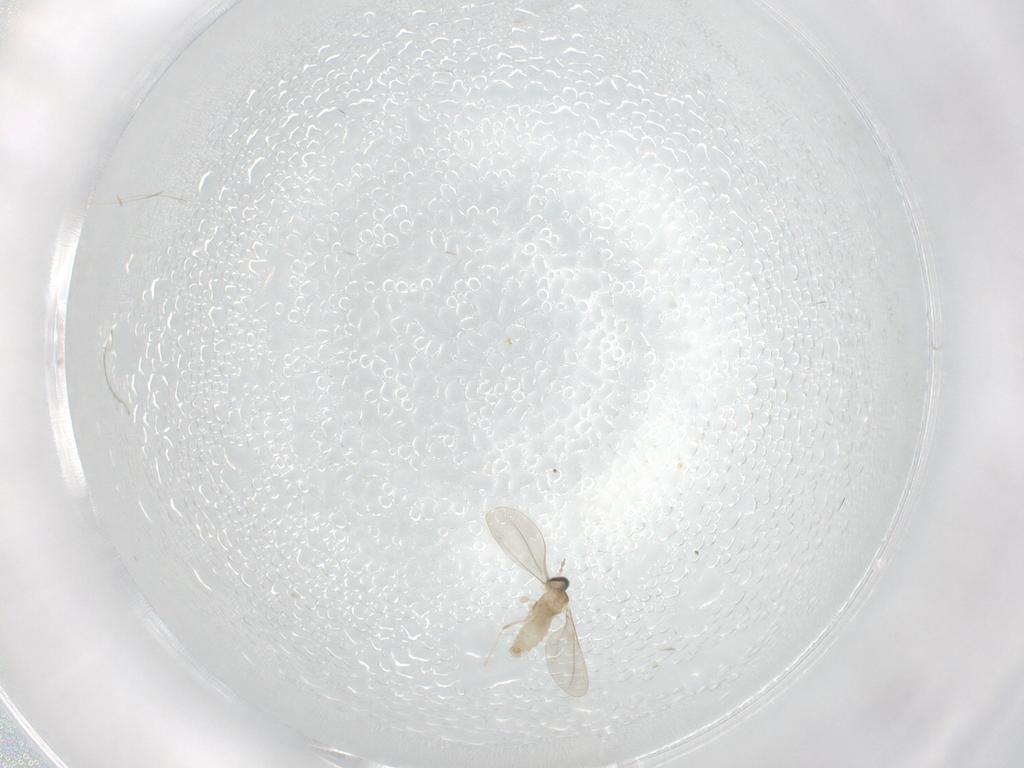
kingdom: Animalia
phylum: Arthropoda
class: Insecta
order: Diptera
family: Cecidomyiidae
